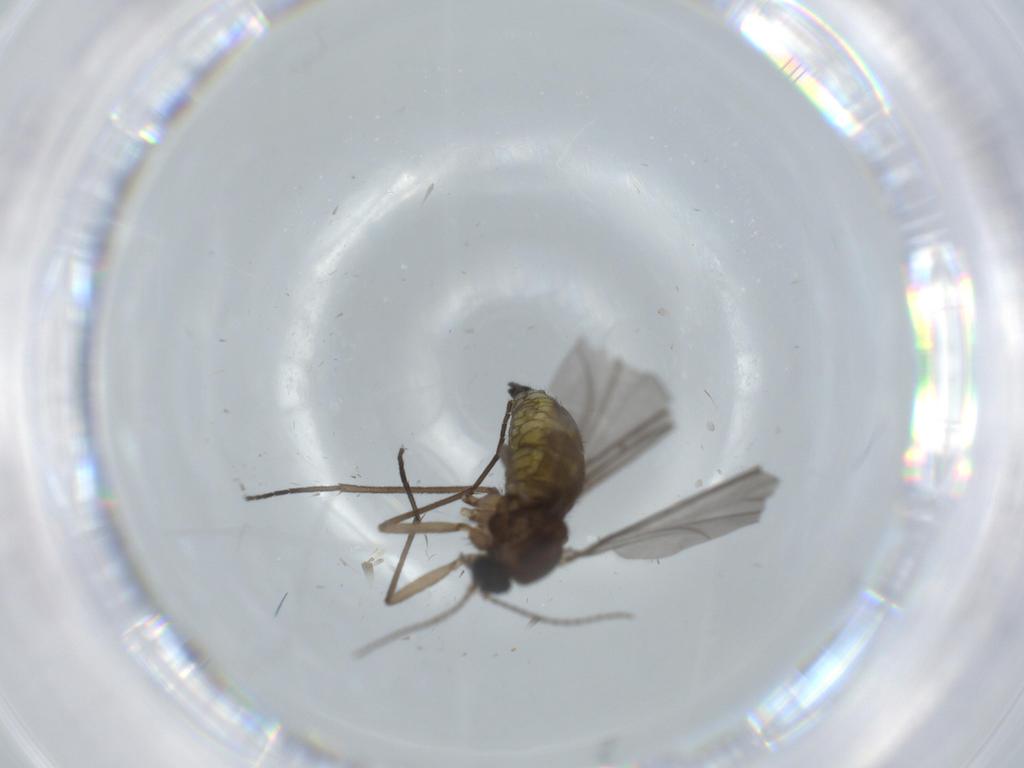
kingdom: Animalia
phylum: Arthropoda
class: Insecta
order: Diptera
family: Sciaridae
